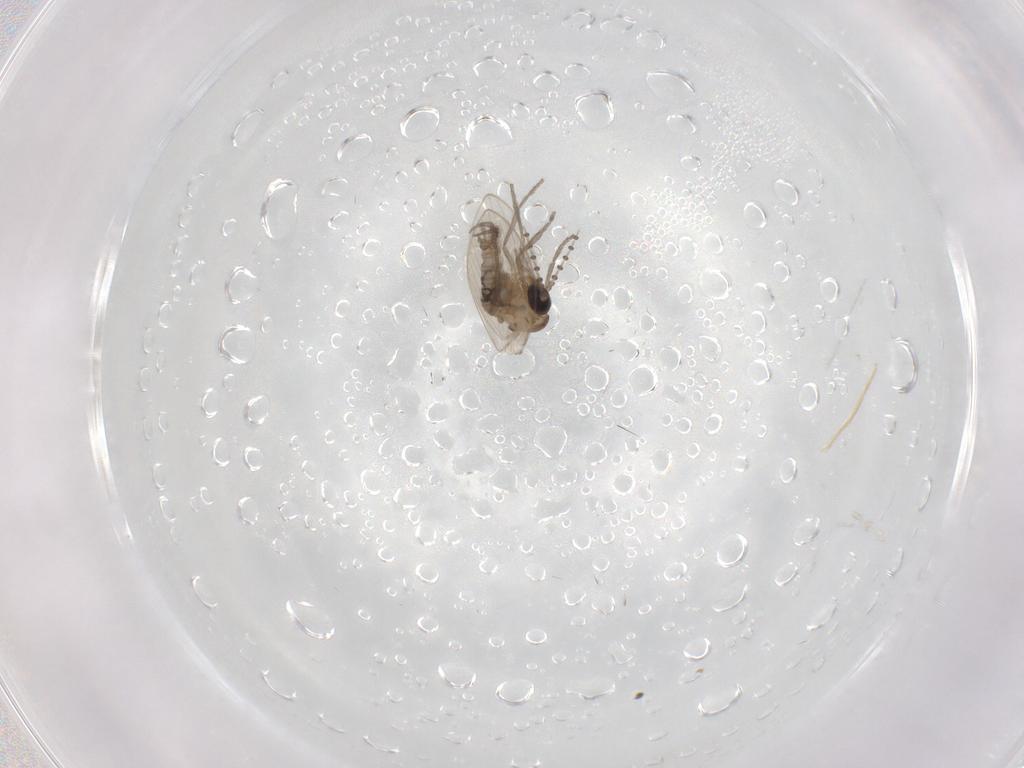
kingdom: Animalia
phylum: Arthropoda
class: Insecta
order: Diptera
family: Psychodidae
